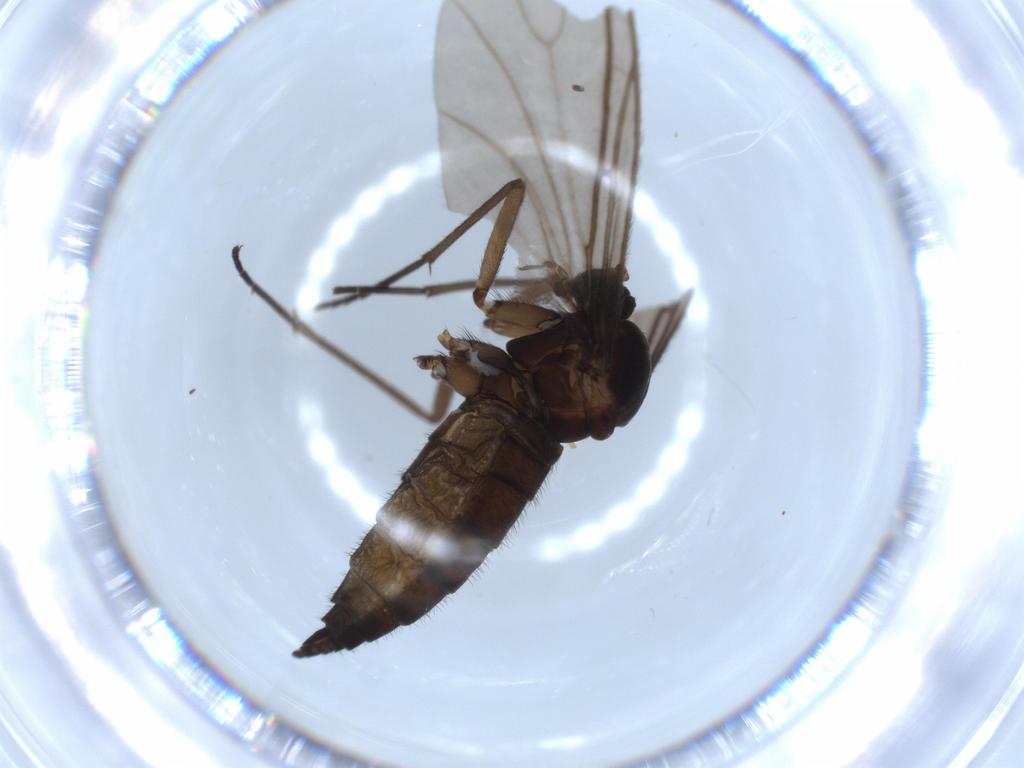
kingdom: Animalia
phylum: Arthropoda
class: Insecta
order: Diptera
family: Sciaridae
